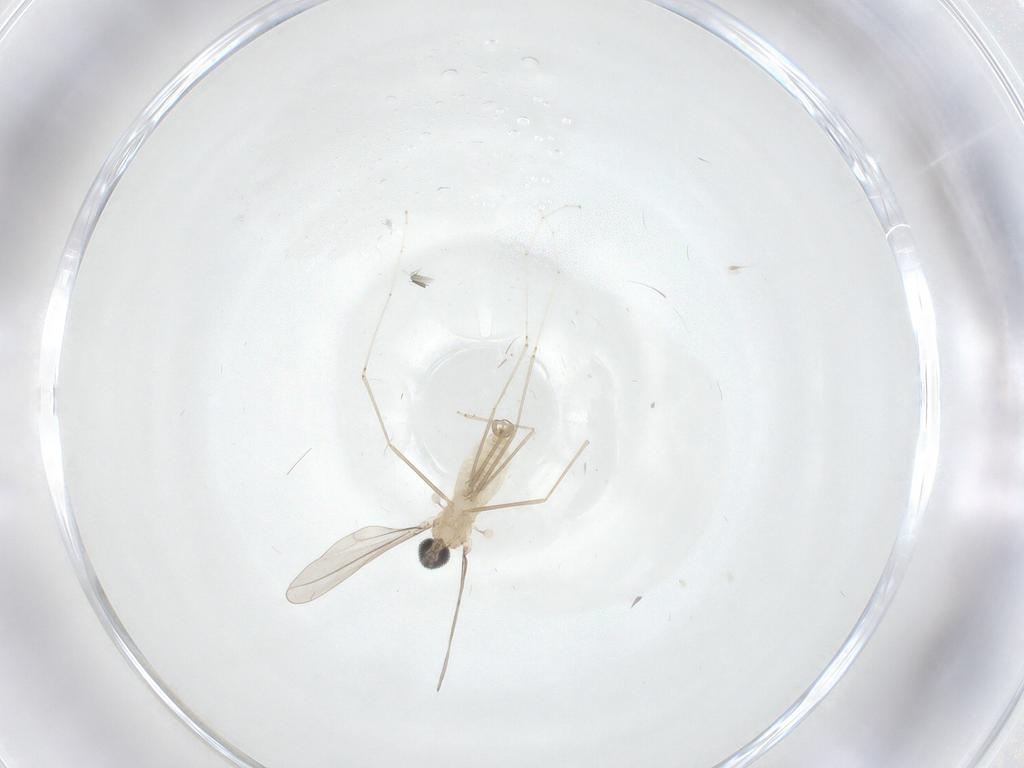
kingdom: Animalia
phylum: Arthropoda
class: Insecta
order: Diptera
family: Cecidomyiidae
